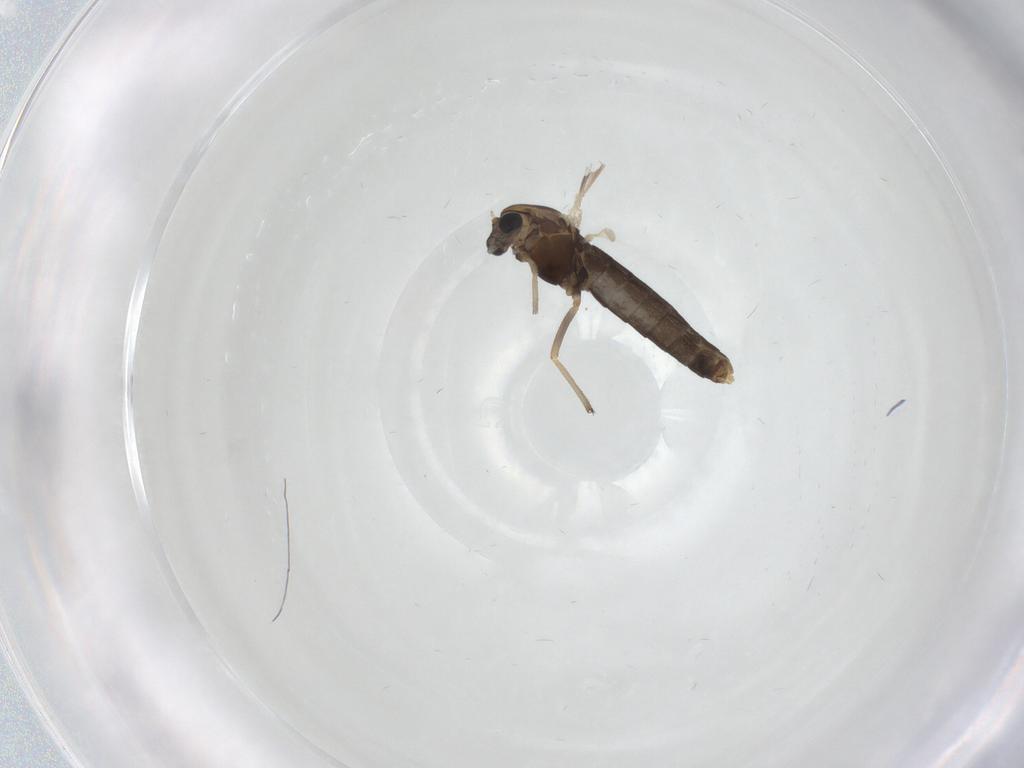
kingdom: Animalia
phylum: Arthropoda
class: Insecta
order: Diptera
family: Chironomidae
